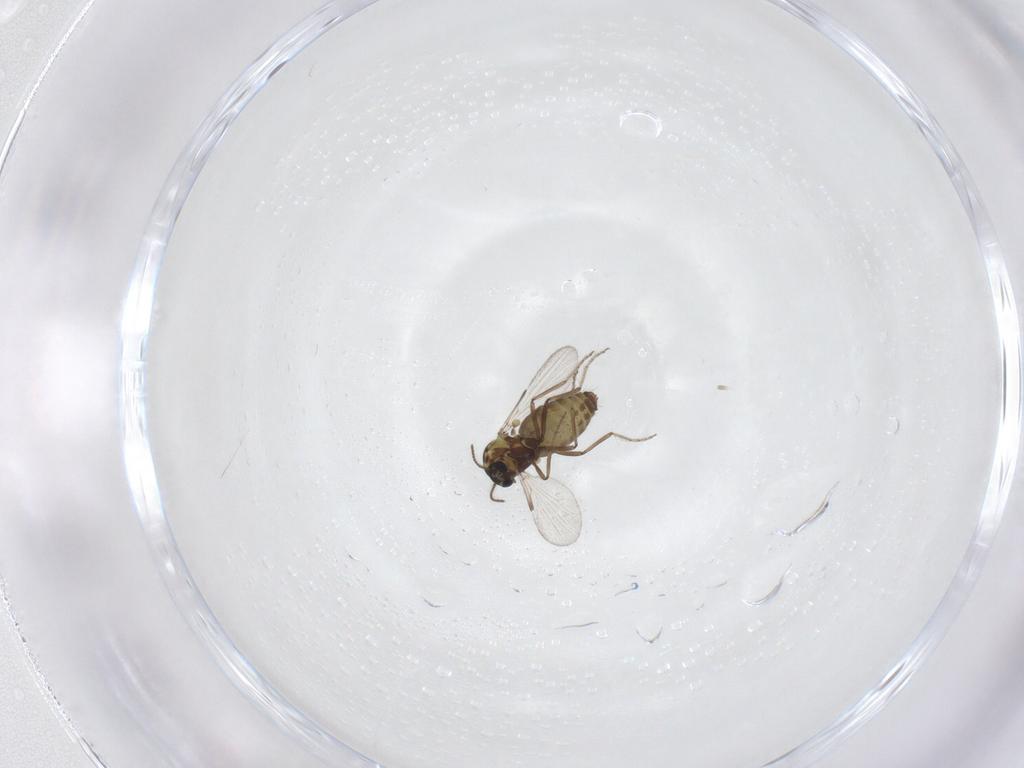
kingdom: Animalia
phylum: Arthropoda
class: Insecta
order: Diptera
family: Ceratopogonidae
